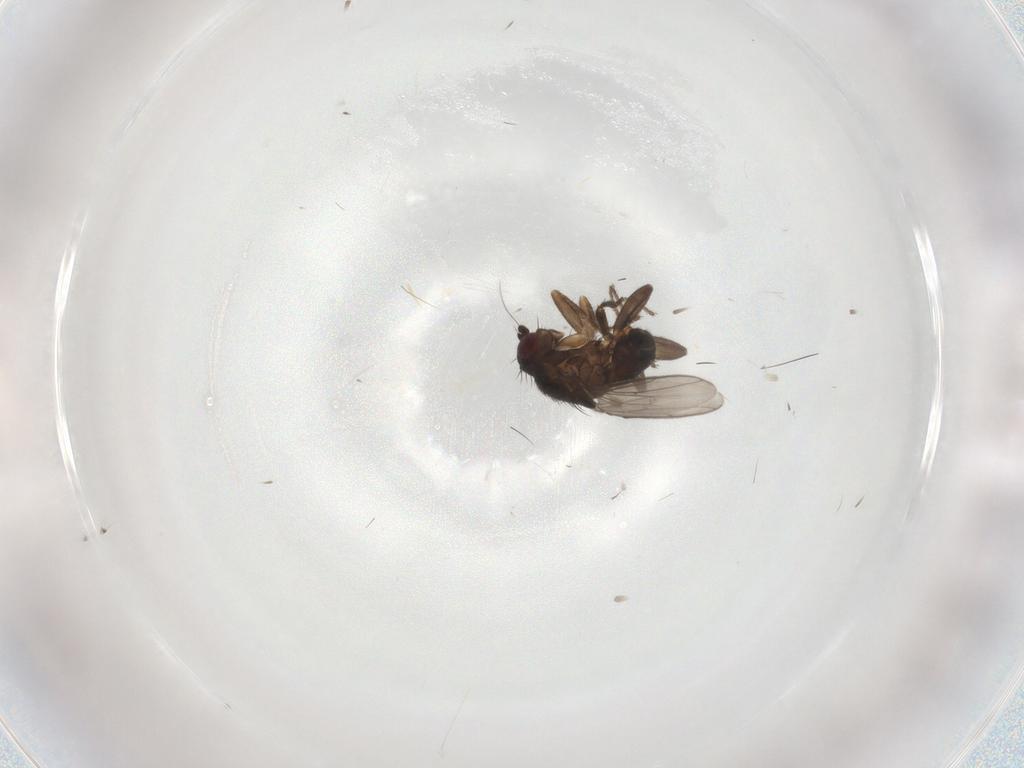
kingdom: Animalia
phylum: Arthropoda
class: Insecta
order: Diptera
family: Sphaeroceridae
